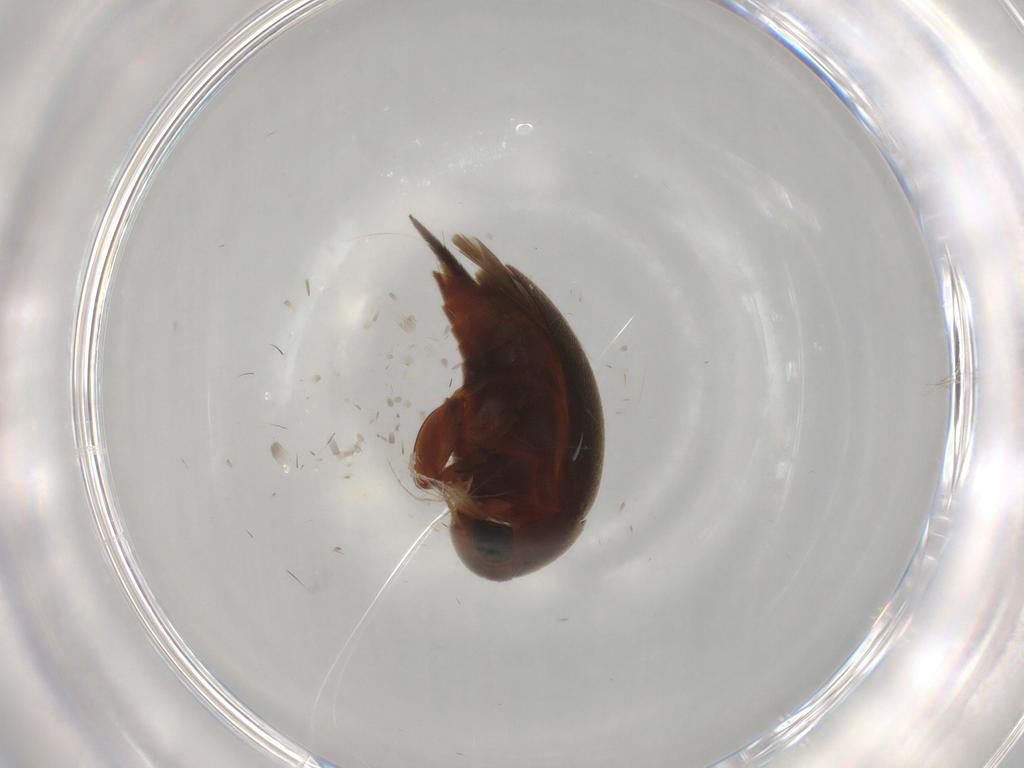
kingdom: Animalia
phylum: Arthropoda
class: Insecta
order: Coleoptera
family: Mordellidae
